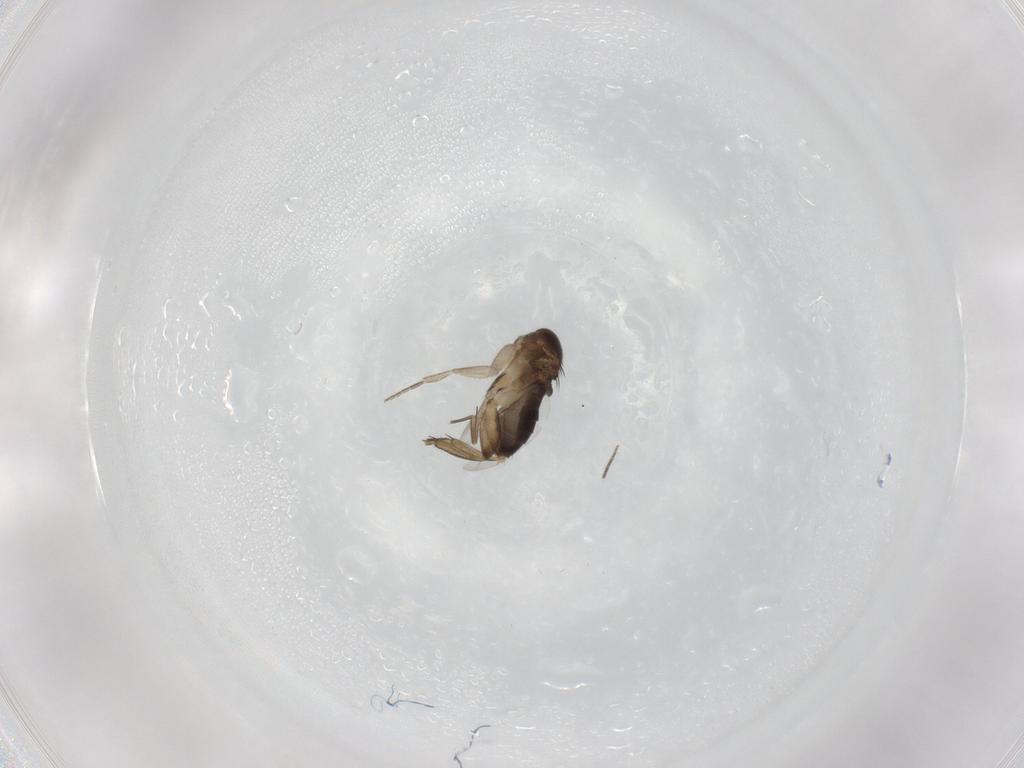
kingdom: Animalia
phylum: Arthropoda
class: Insecta
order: Diptera
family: Phoridae
